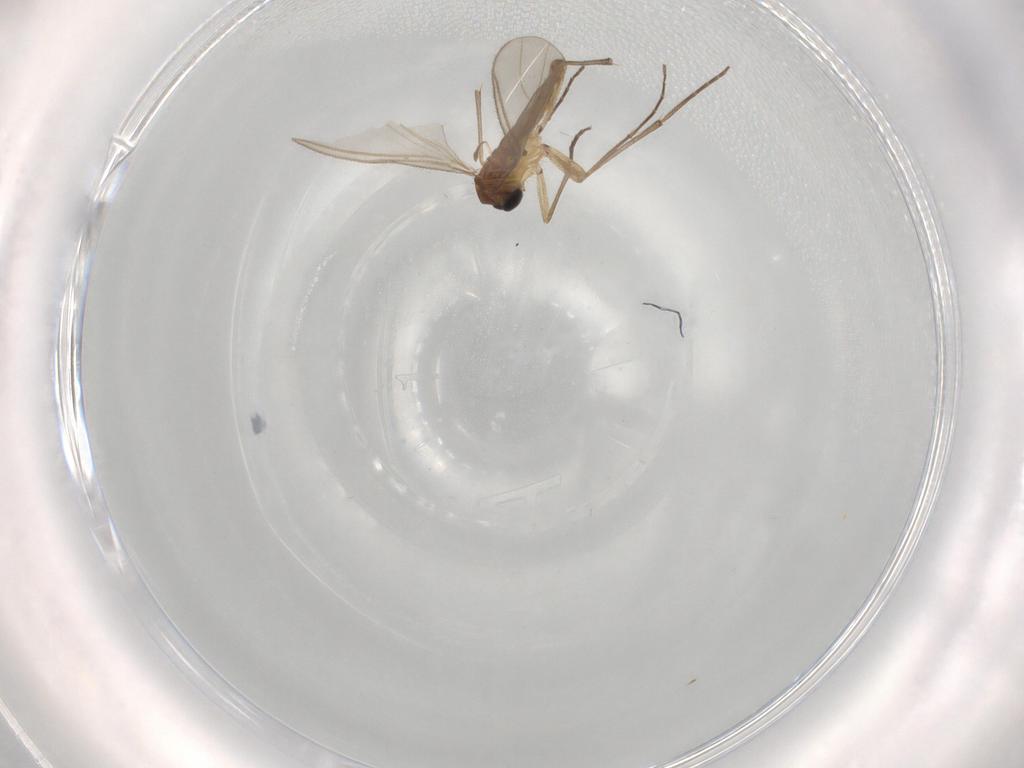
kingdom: Animalia
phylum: Arthropoda
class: Insecta
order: Diptera
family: Sciaridae
